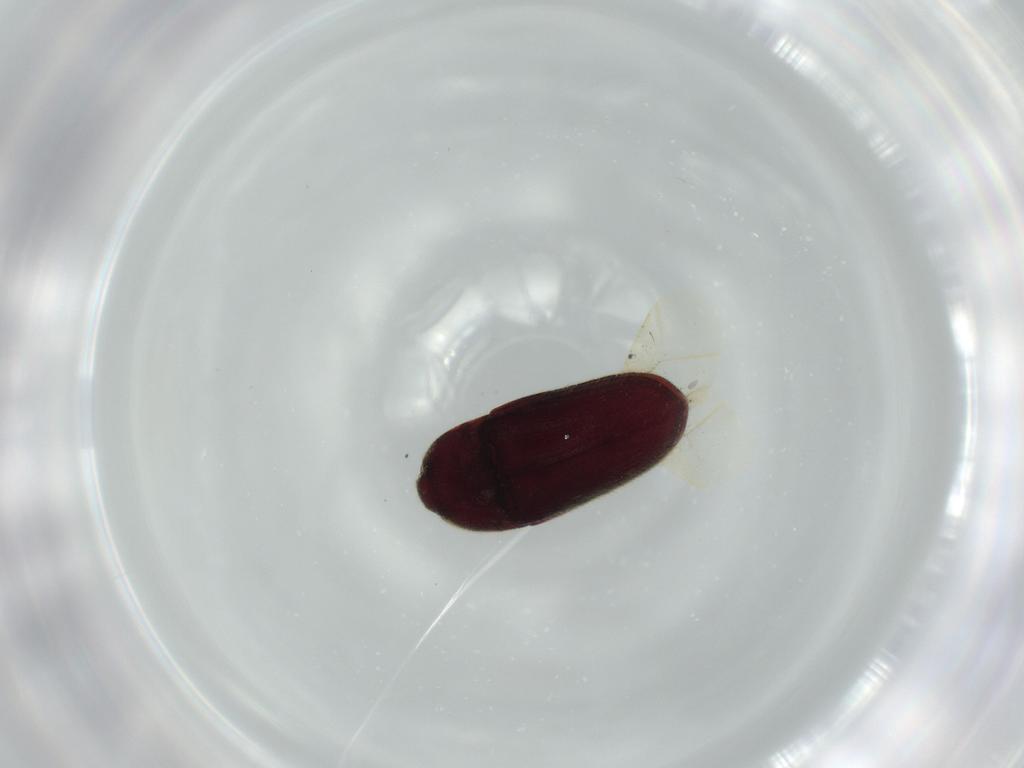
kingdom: Animalia
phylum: Arthropoda
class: Insecta
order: Coleoptera
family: Throscidae
